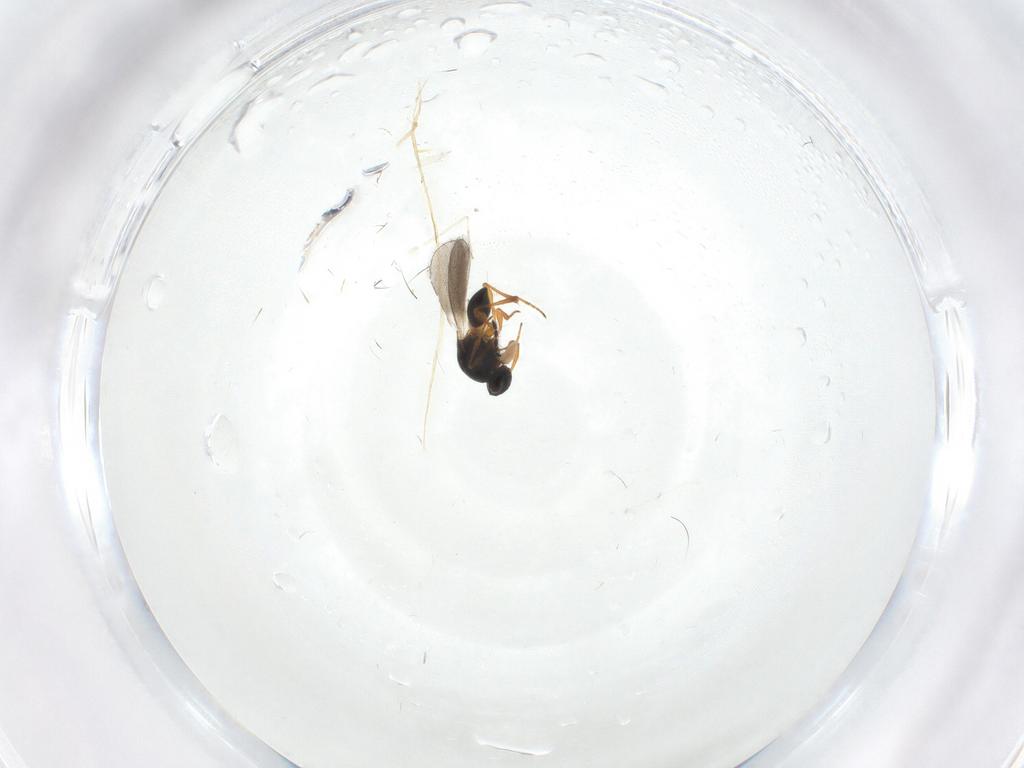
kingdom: Animalia
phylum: Arthropoda
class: Insecta
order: Hymenoptera
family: Platygastridae
